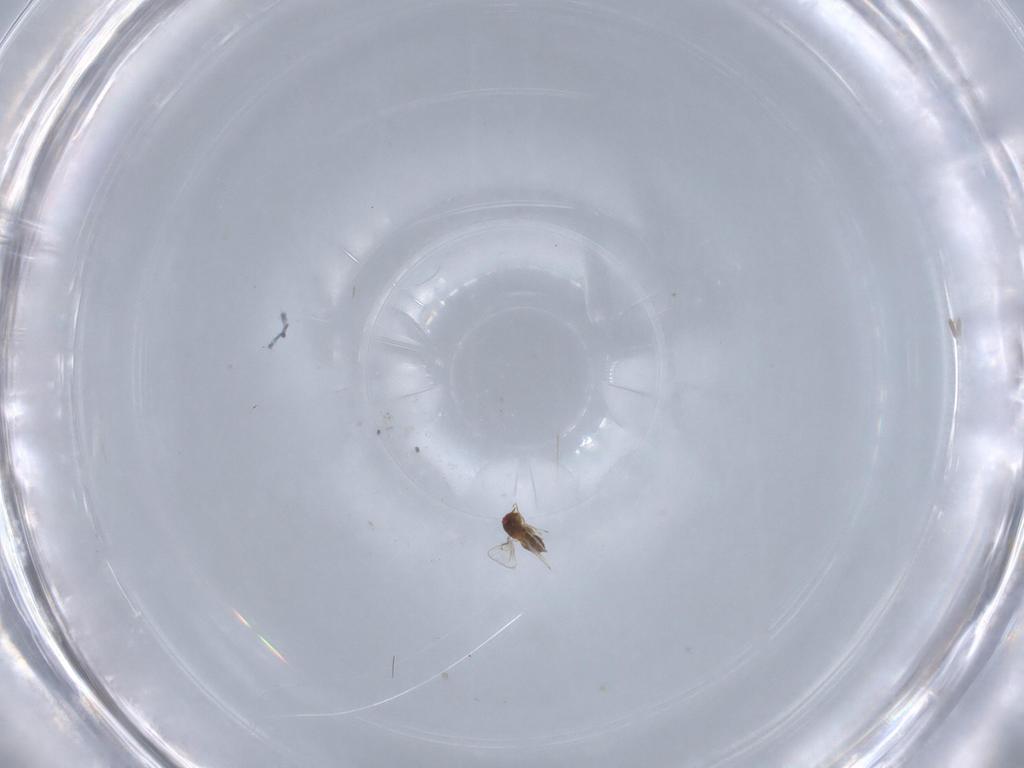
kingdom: Animalia
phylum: Arthropoda
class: Insecta
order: Hymenoptera
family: Trichogrammatidae
